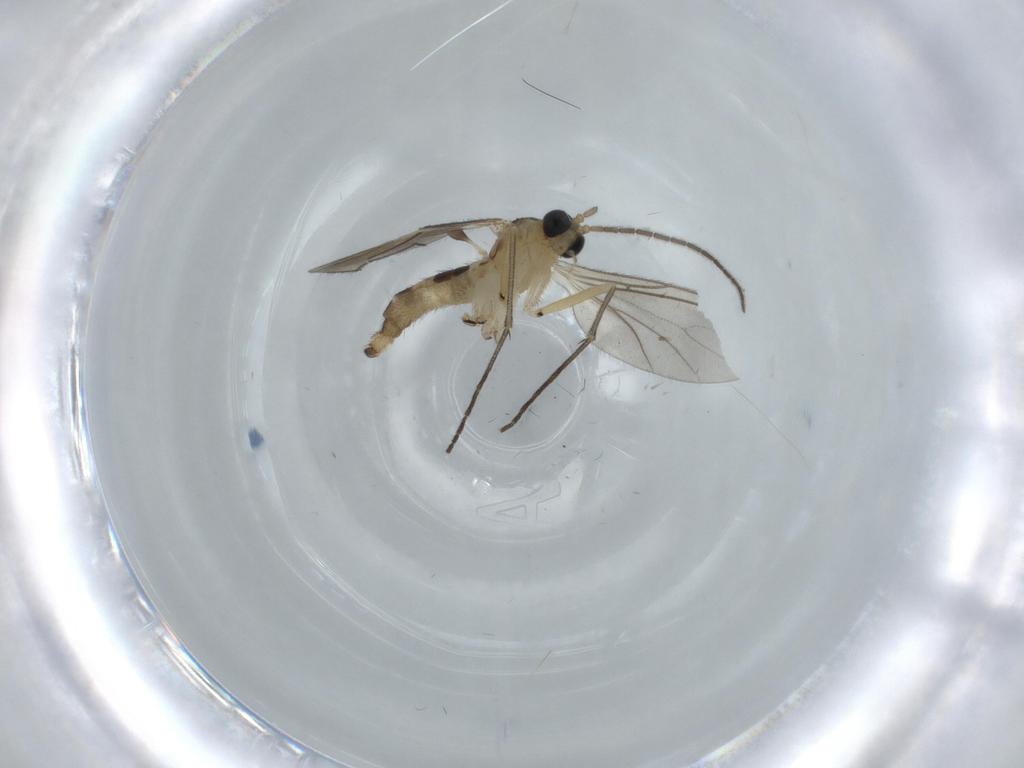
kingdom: Animalia
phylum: Arthropoda
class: Insecta
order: Diptera
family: Sciaridae
